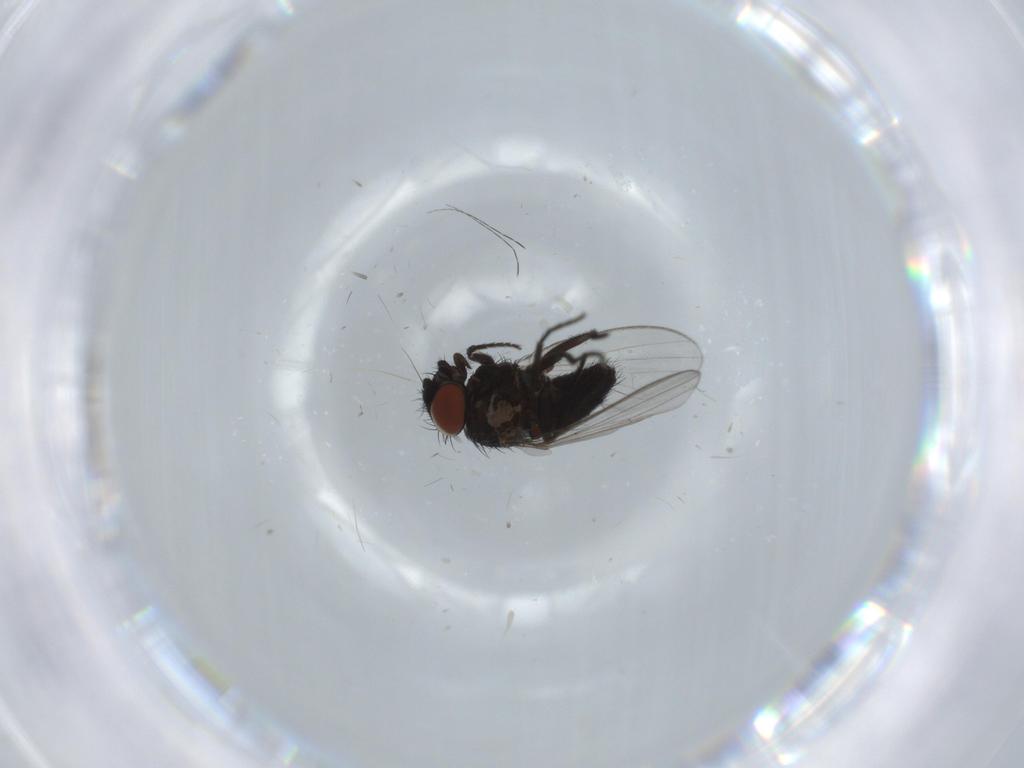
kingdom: Animalia
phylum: Arthropoda
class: Insecta
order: Diptera
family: Milichiidae
